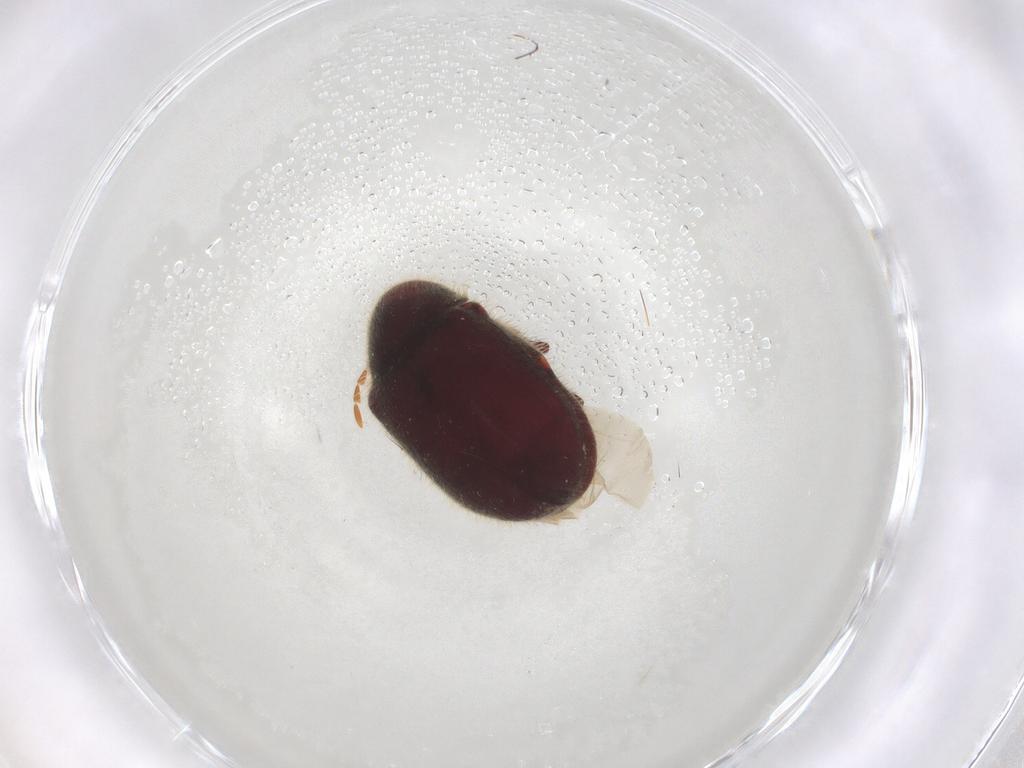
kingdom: Animalia
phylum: Arthropoda
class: Insecta
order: Coleoptera
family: Ptinidae
